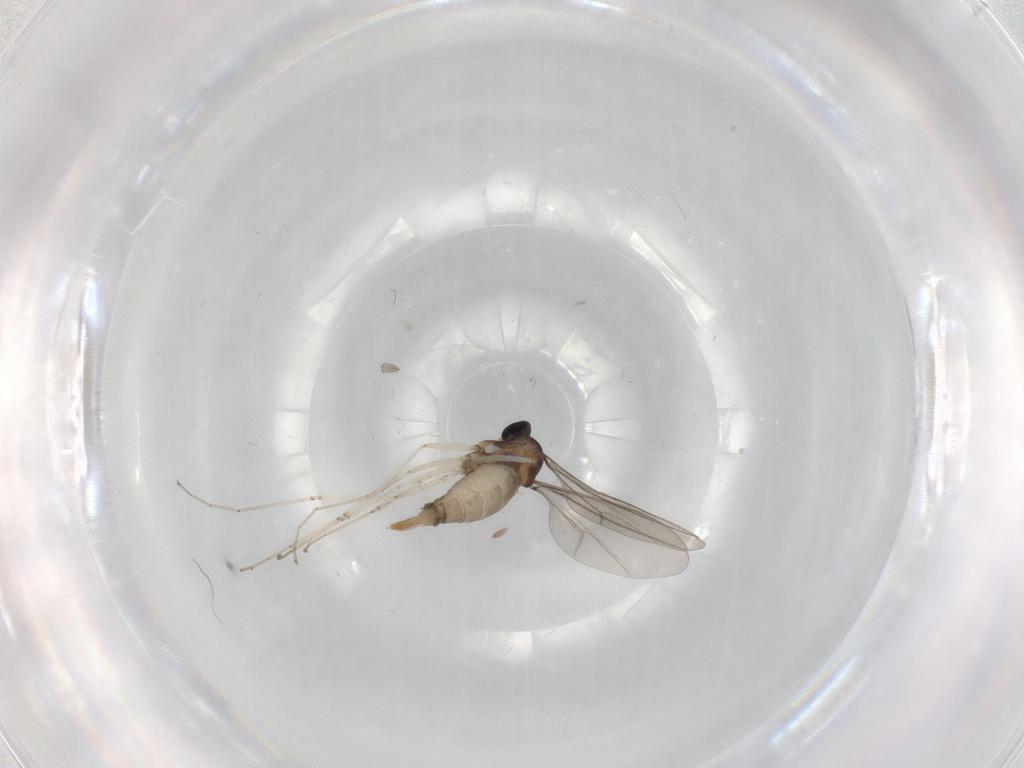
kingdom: Animalia
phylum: Arthropoda
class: Insecta
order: Diptera
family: Cecidomyiidae
